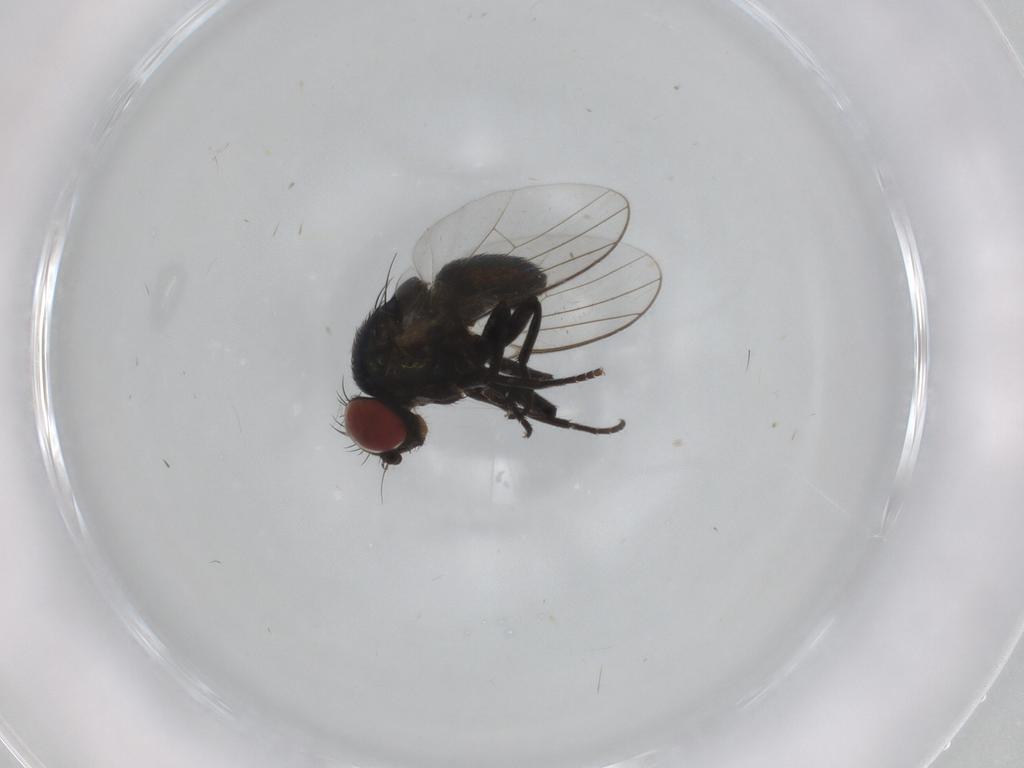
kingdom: Animalia
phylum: Arthropoda
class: Insecta
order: Diptera
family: Agromyzidae
